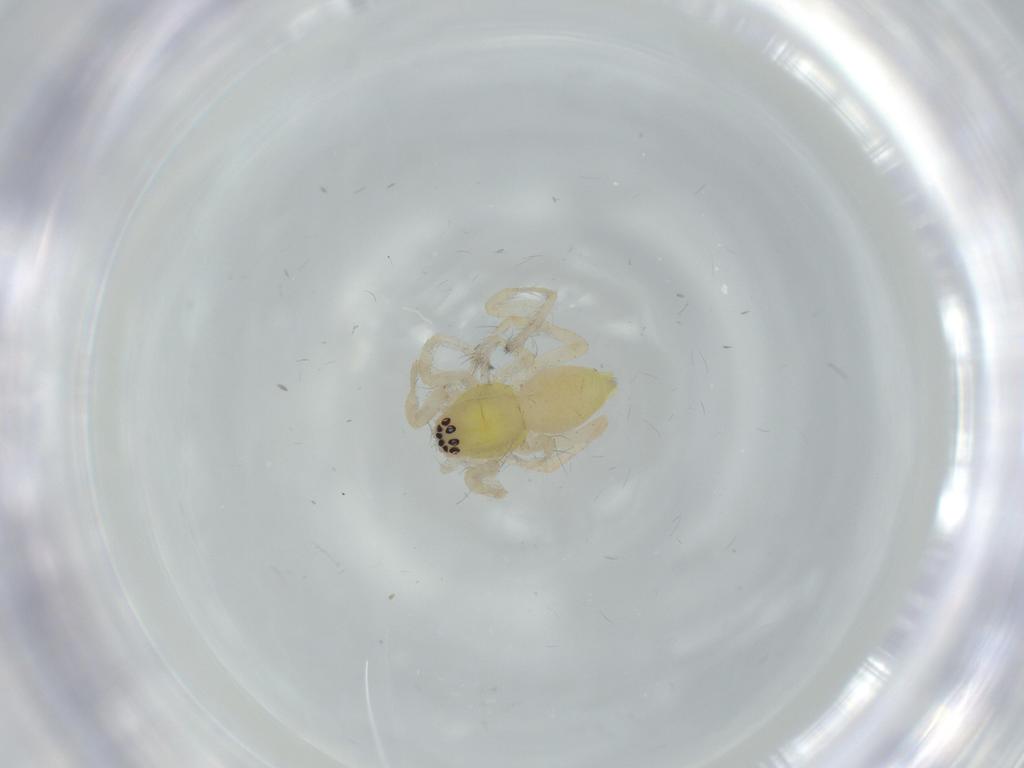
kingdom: Animalia
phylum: Arthropoda
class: Arachnida
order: Araneae
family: Anyphaenidae
